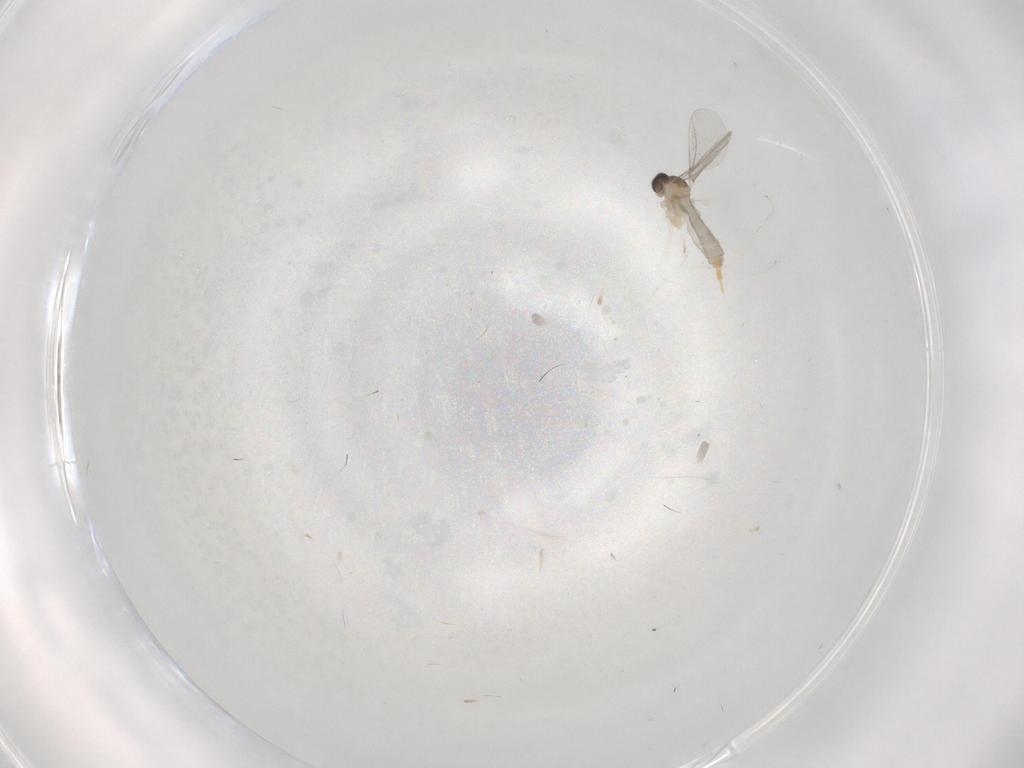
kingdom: Animalia
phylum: Arthropoda
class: Insecta
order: Diptera
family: Cecidomyiidae
